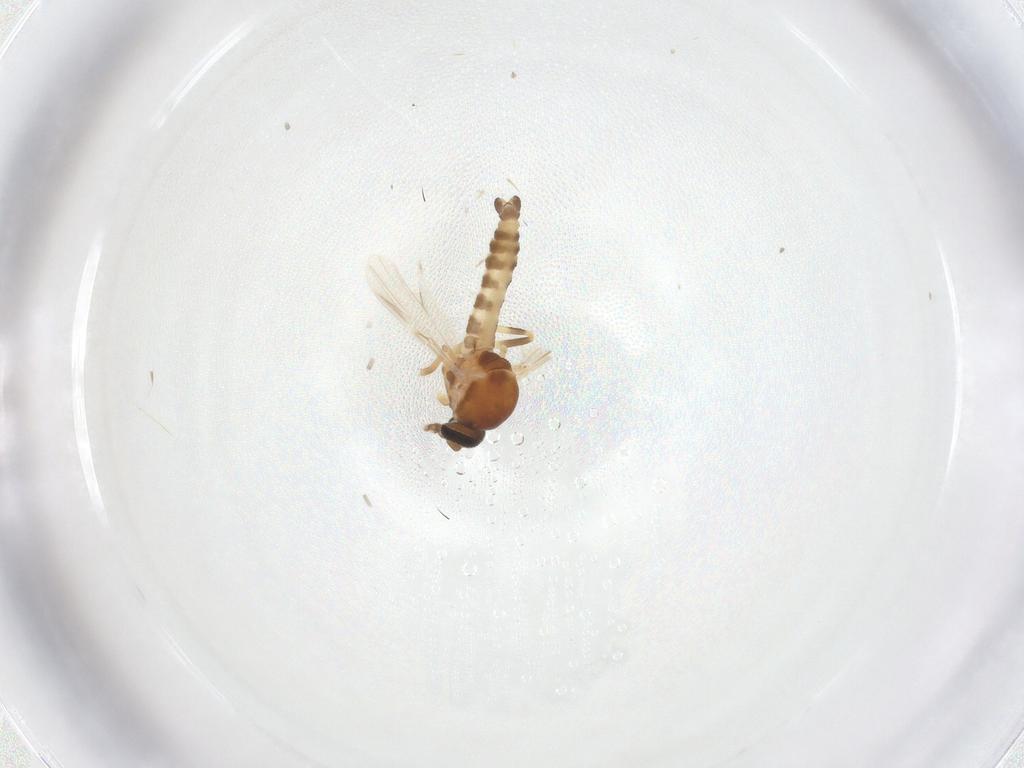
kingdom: Animalia
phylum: Arthropoda
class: Insecta
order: Diptera
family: Ceratopogonidae
